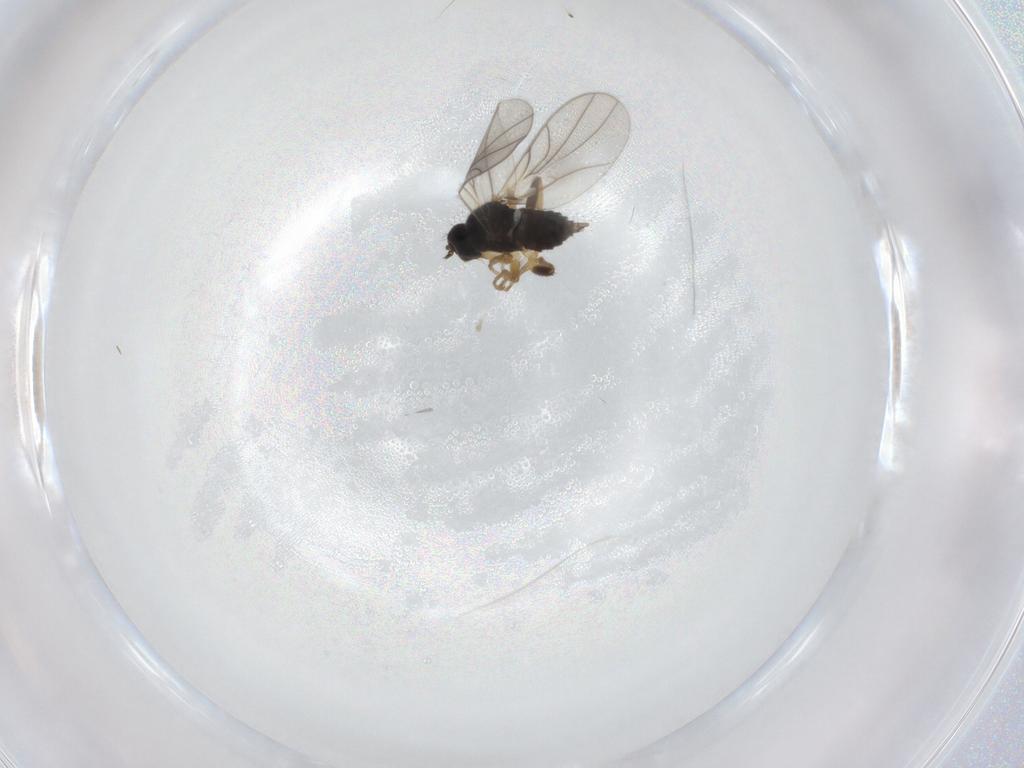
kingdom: Animalia
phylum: Arthropoda
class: Insecta
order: Diptera
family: Hybotidae
